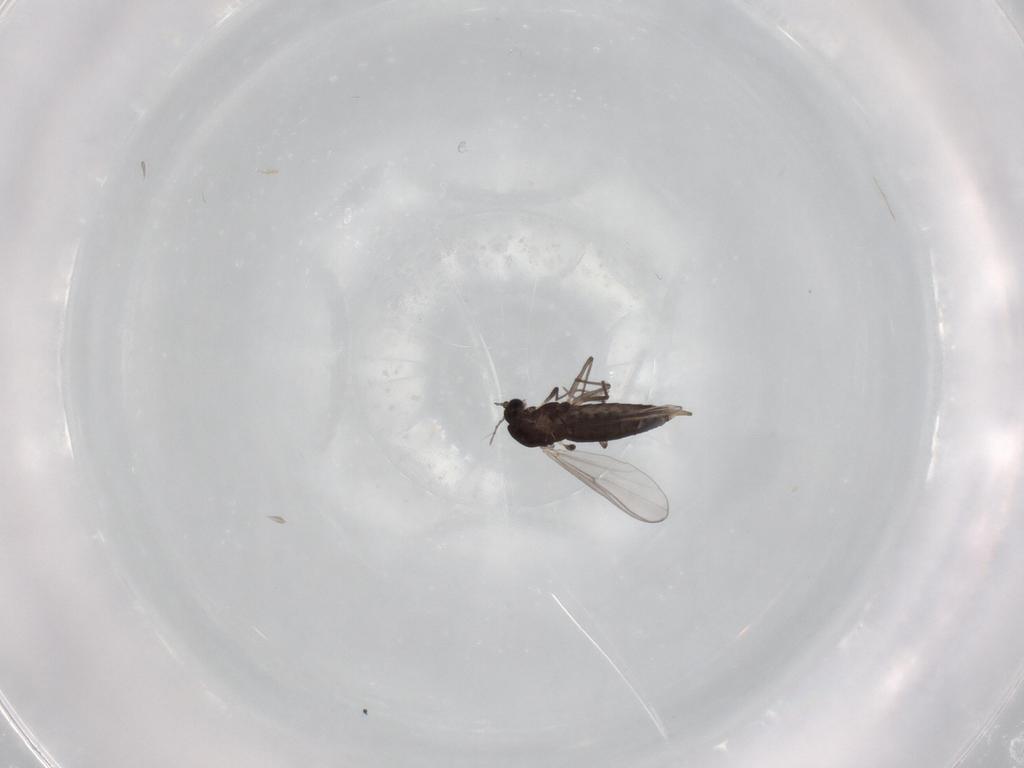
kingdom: Animalia
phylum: Arthropoda
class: Insecta
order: Diptera
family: Chironomidae
